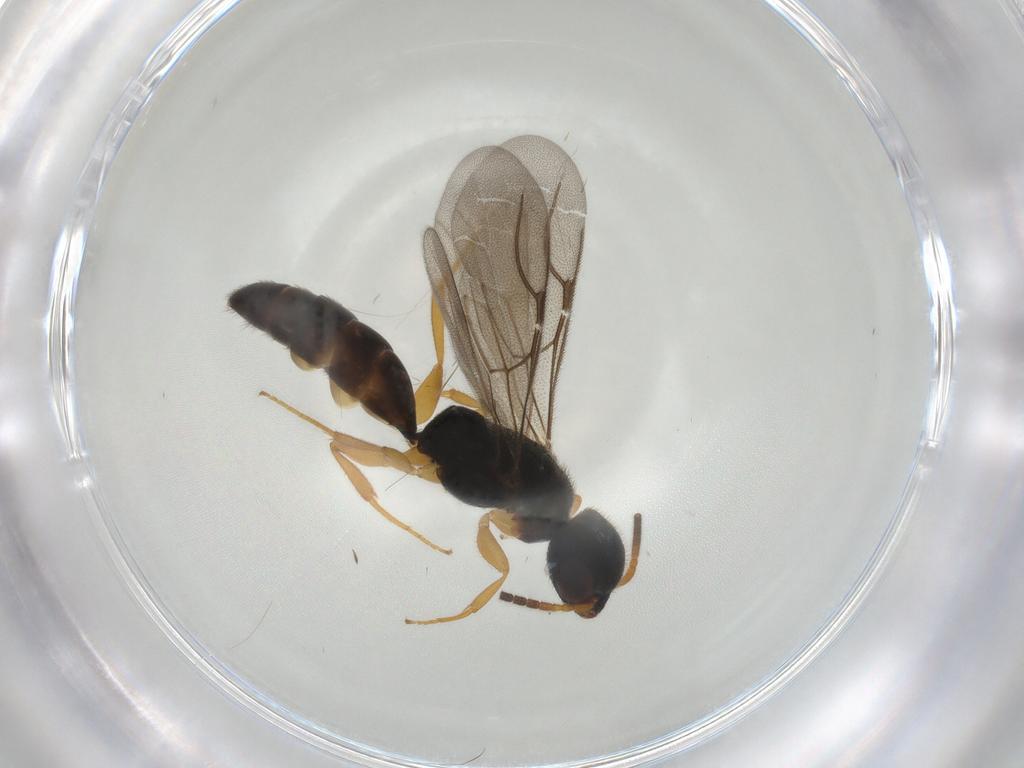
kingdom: Animalia
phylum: Arthropoda
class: Insecta
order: Hymenoptera
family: Bethylidae
